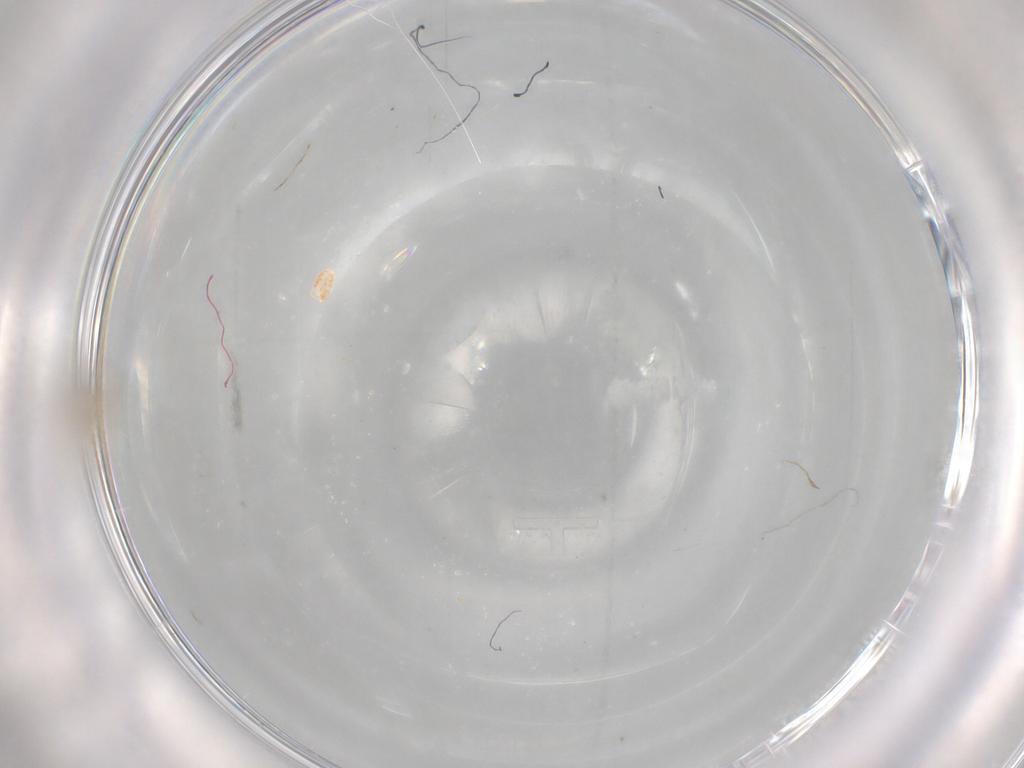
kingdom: Animalia
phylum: Arthropoda
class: Insecta
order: Diptera
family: Cecidomyiidae
